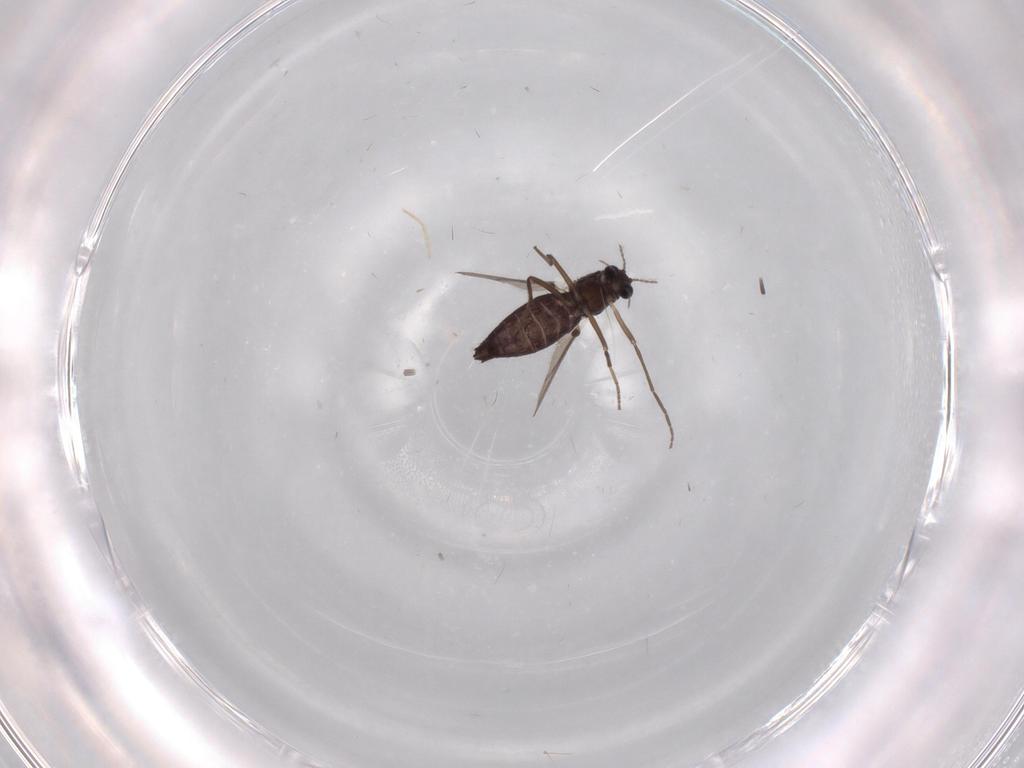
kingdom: Animalia
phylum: Arthropoda
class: Insecta
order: Diptera
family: Chironomidae
